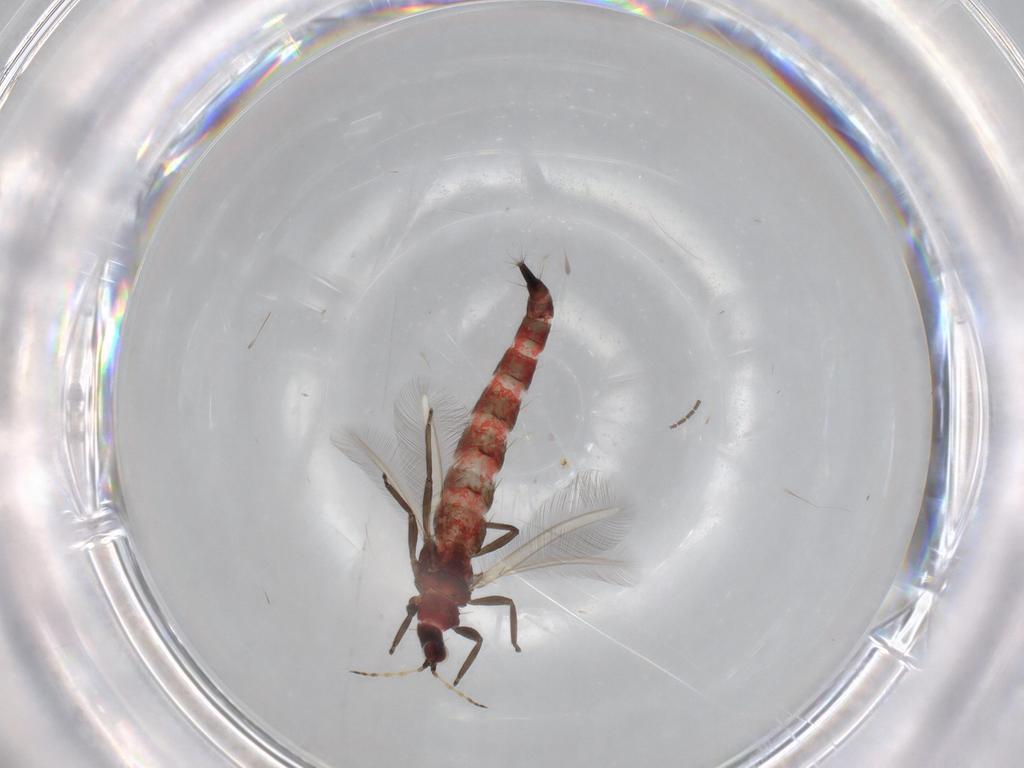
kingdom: Animalia
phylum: Arthropoda
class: Insecta
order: Thysanoptera
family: Phlaeothripidae
